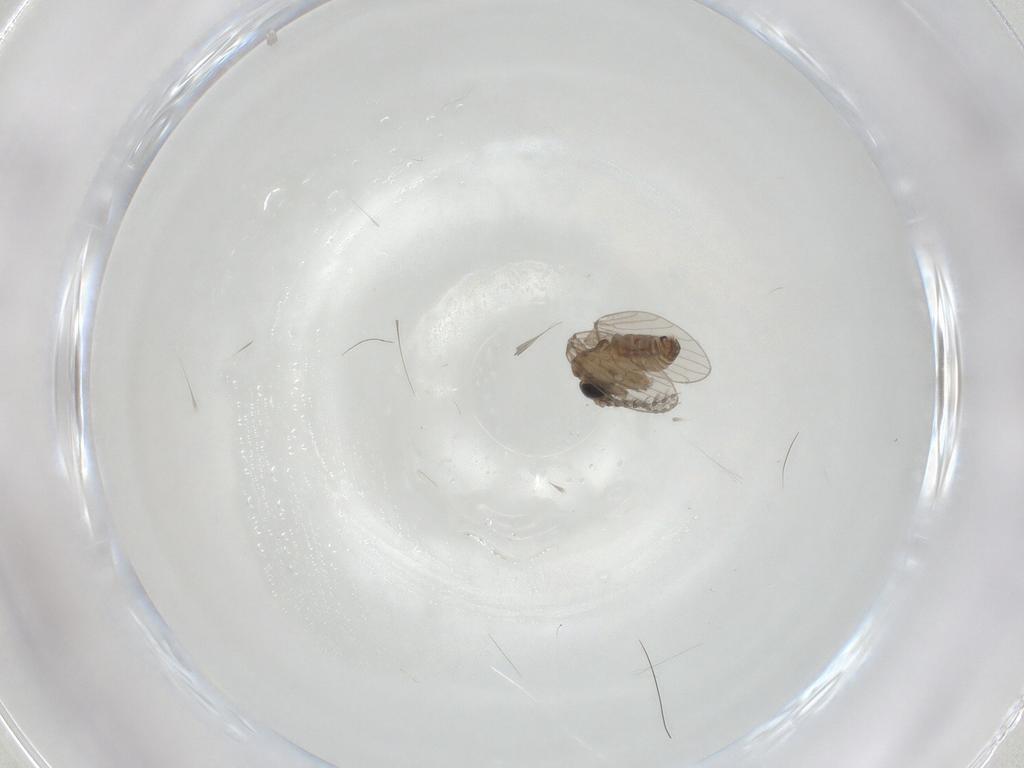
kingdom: Animalia
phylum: Arthropoda
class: Insecta
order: Diptera
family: Psychodidae
